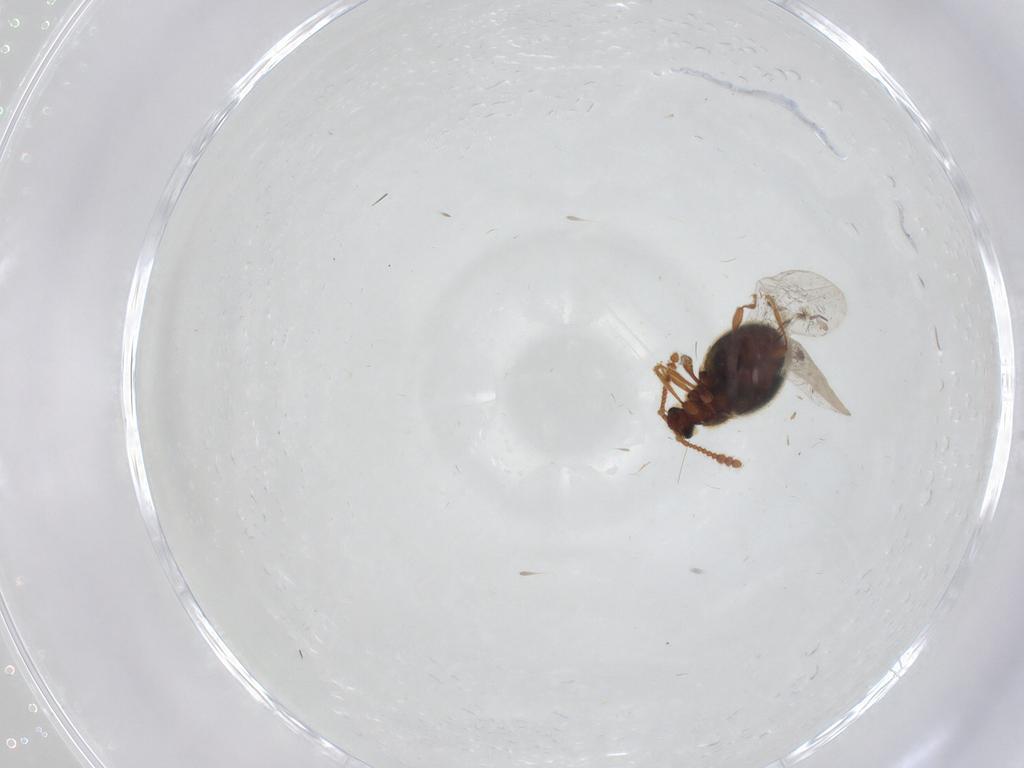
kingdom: Animalia
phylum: Arthropoda
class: Insecta
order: Coleoptera
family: Staphylinidae
